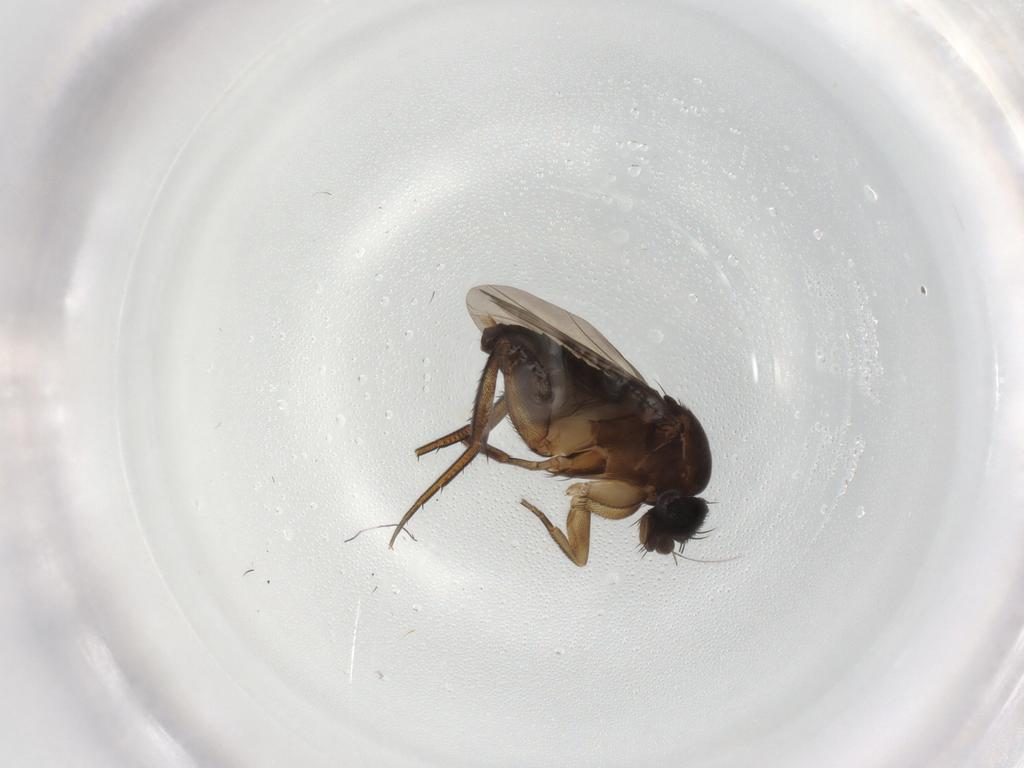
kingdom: Animalia
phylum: Arthropoda
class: Insecta
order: Diptera
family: Phoridae
